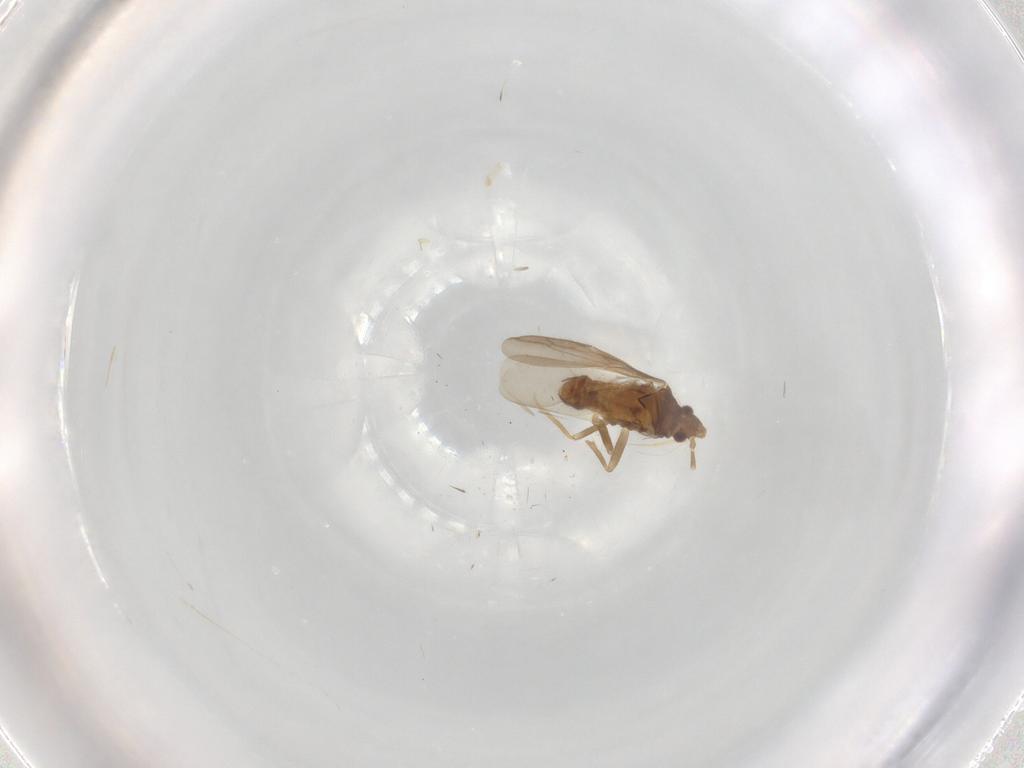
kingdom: Animalia
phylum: Arthropoda
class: Insecta
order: Hemiptera
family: Ceratocombidae
